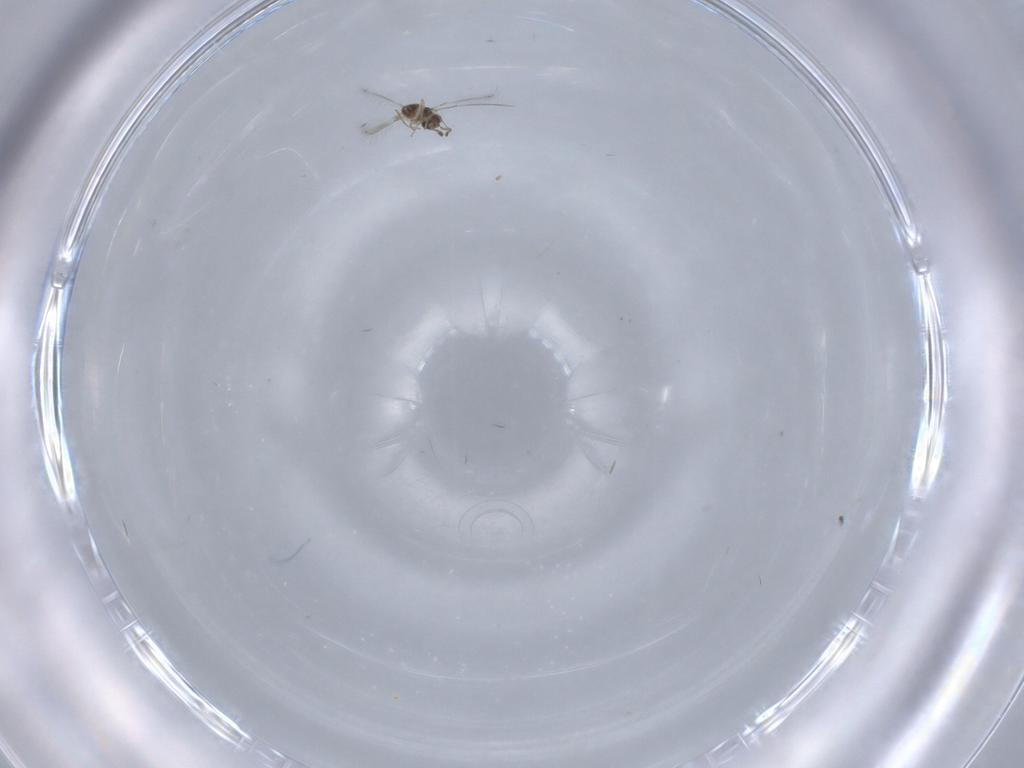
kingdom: Animalia
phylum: Arthropoda
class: Insecta
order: Hymenoptera
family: Mymaridae
